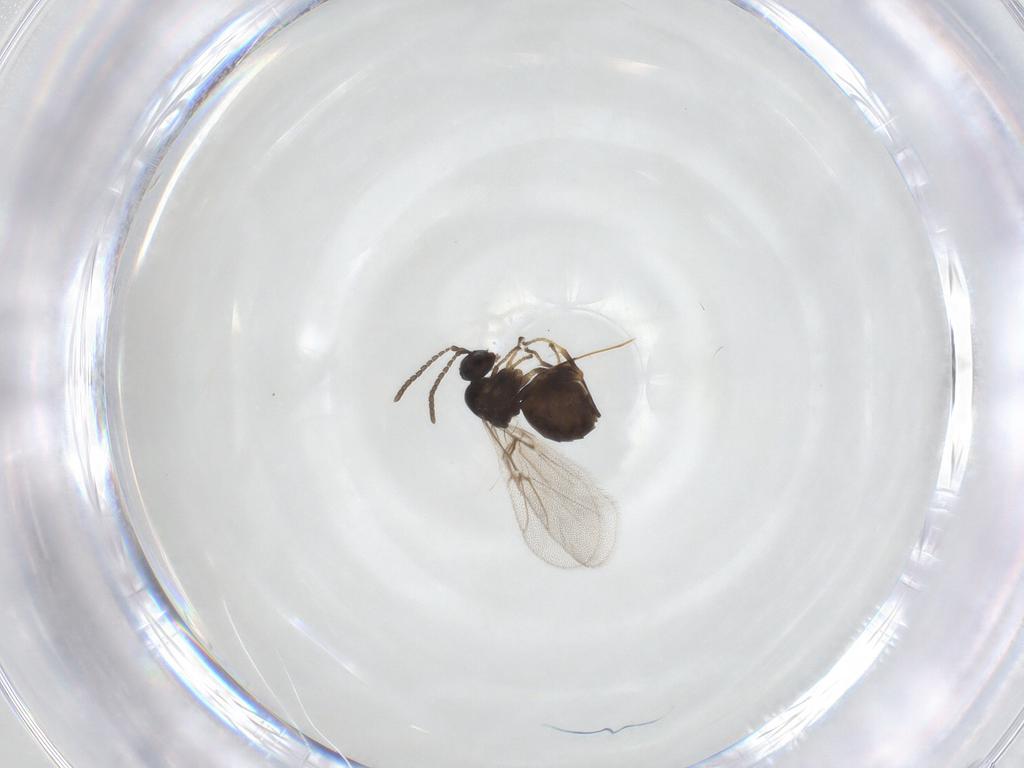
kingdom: Animalia
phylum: Arthropoda
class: Insecta
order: Hymenoptera
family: Cynipidae
